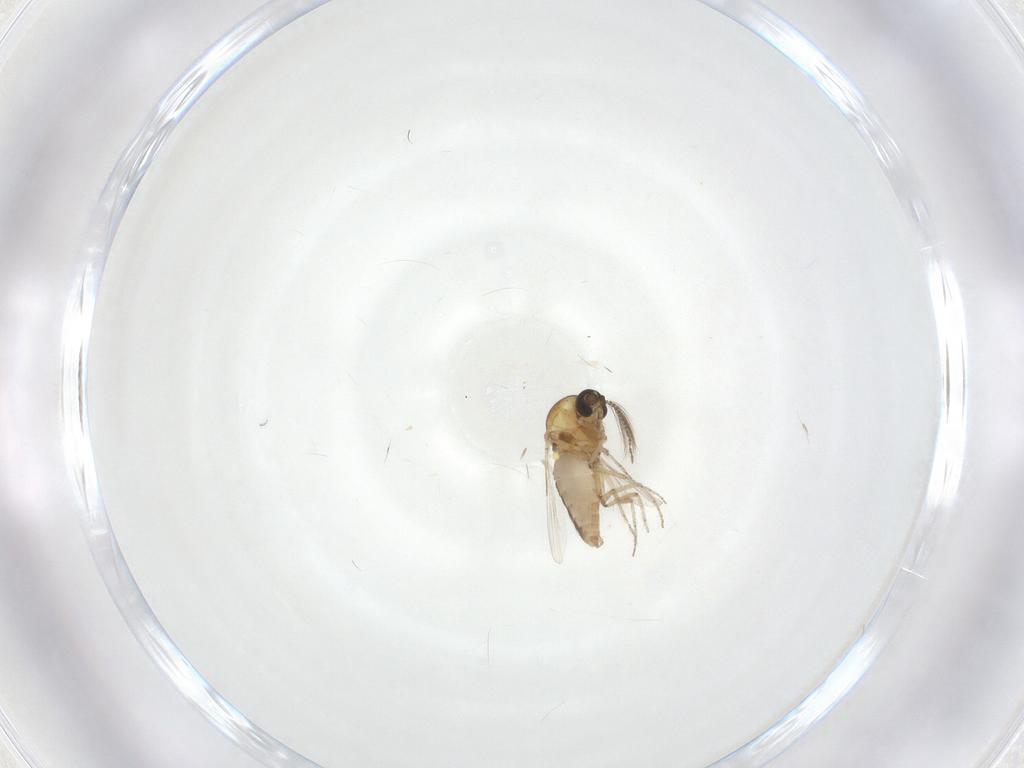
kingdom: Animalia
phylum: Arthropoda
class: Insecta
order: Diptera
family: Ceratopogonidae
